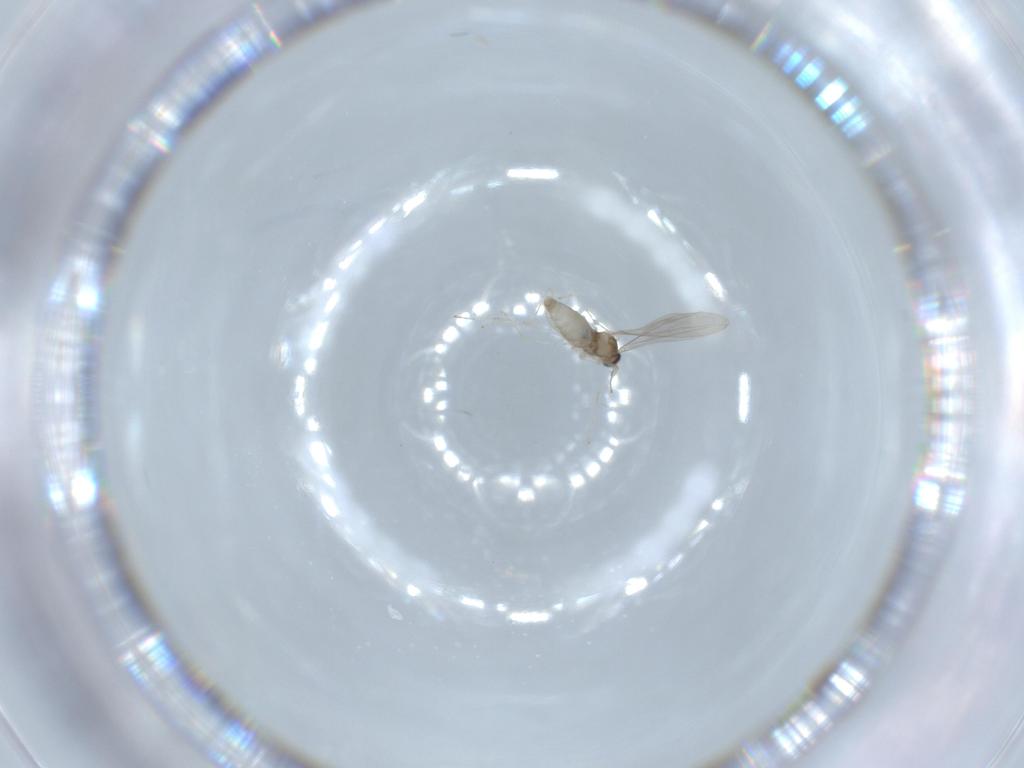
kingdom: Animalia
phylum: Arthropoda
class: Insecta
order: Diptera
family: Cecidomyiidae
